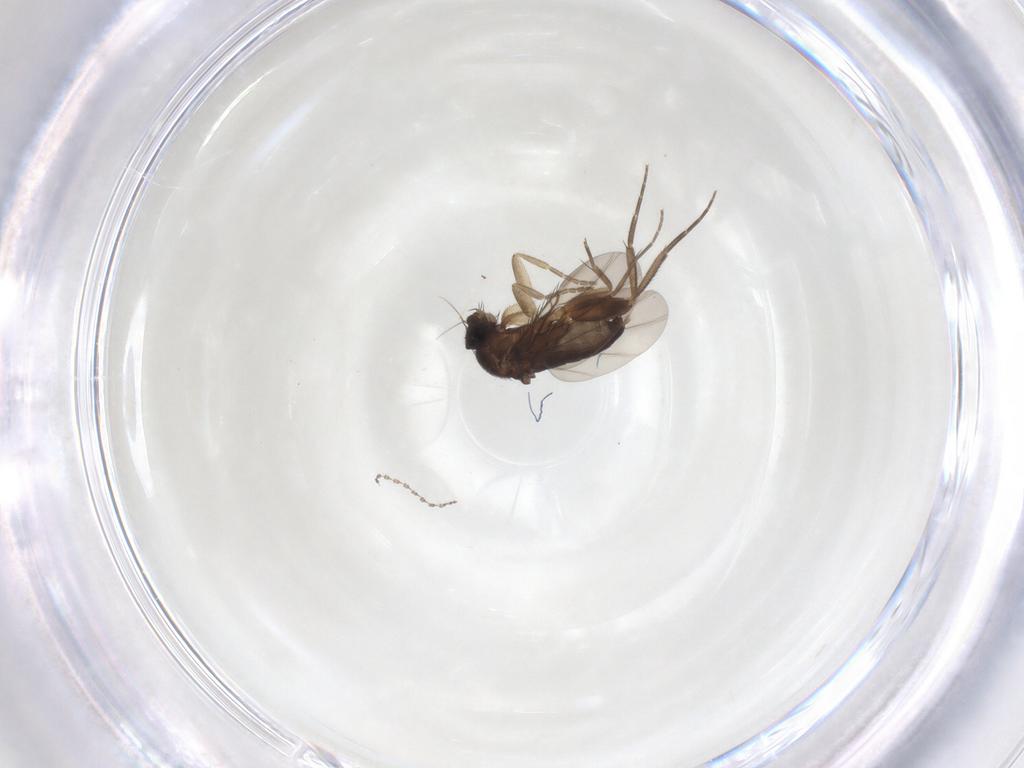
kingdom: Animalia
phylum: Arthropoda
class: Insecta
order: Diptera
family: Phoridae
